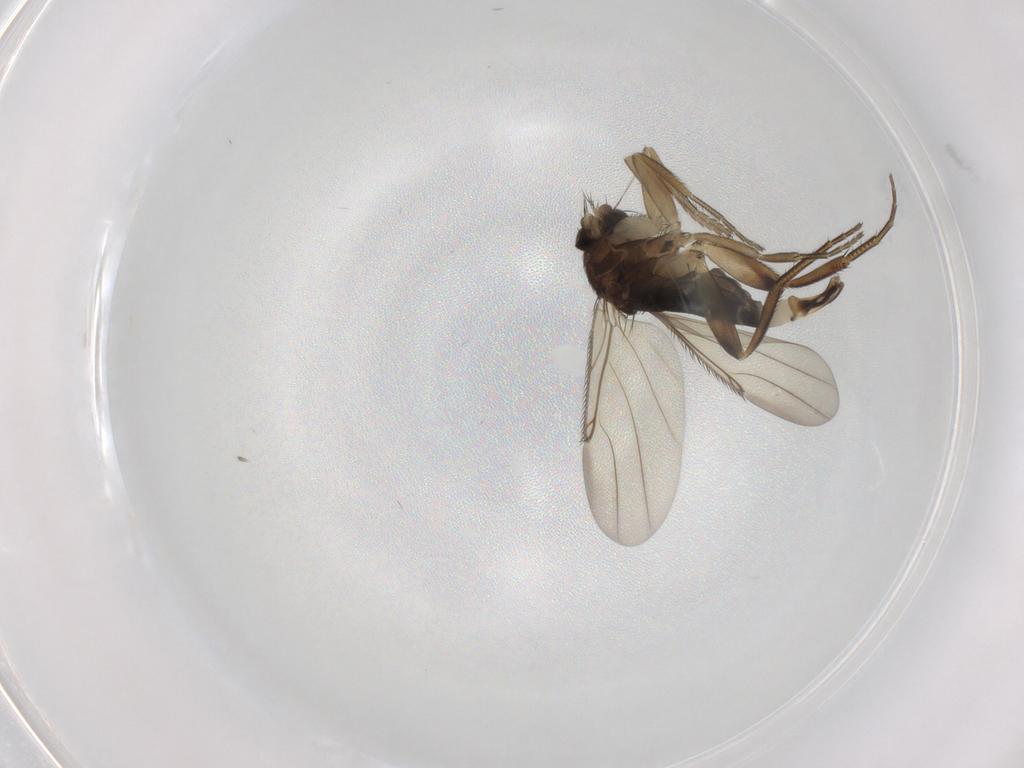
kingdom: Animalia
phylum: Arthropoda
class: Insecta
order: Diptera
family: Phoridae
